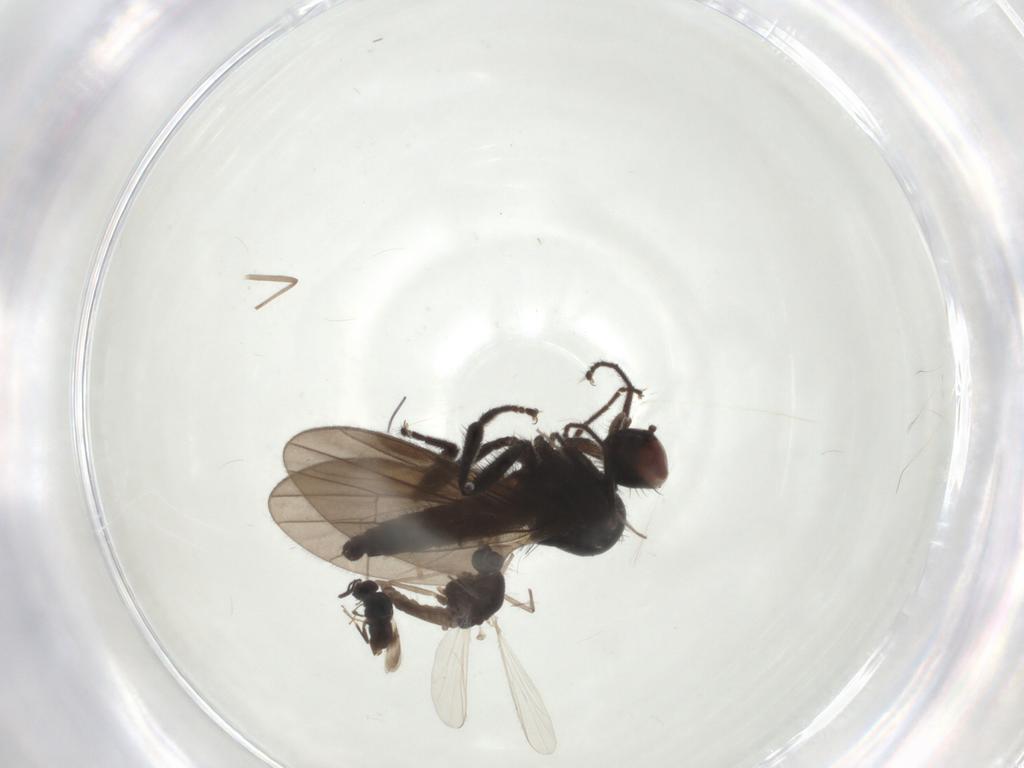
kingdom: Animalia
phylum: Arthropoda
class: Insecta
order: Diptera
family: Hybotidae
